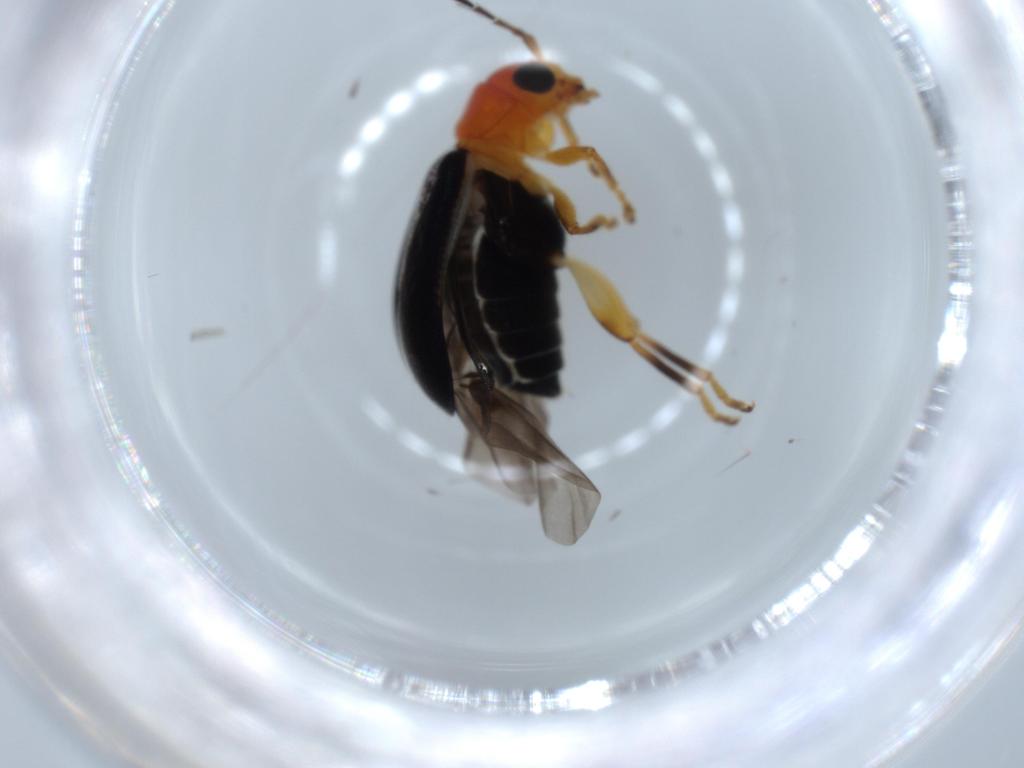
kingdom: Animalia
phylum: Arthropoda
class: Insecta
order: Coleoptera
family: Chrysomelidae
